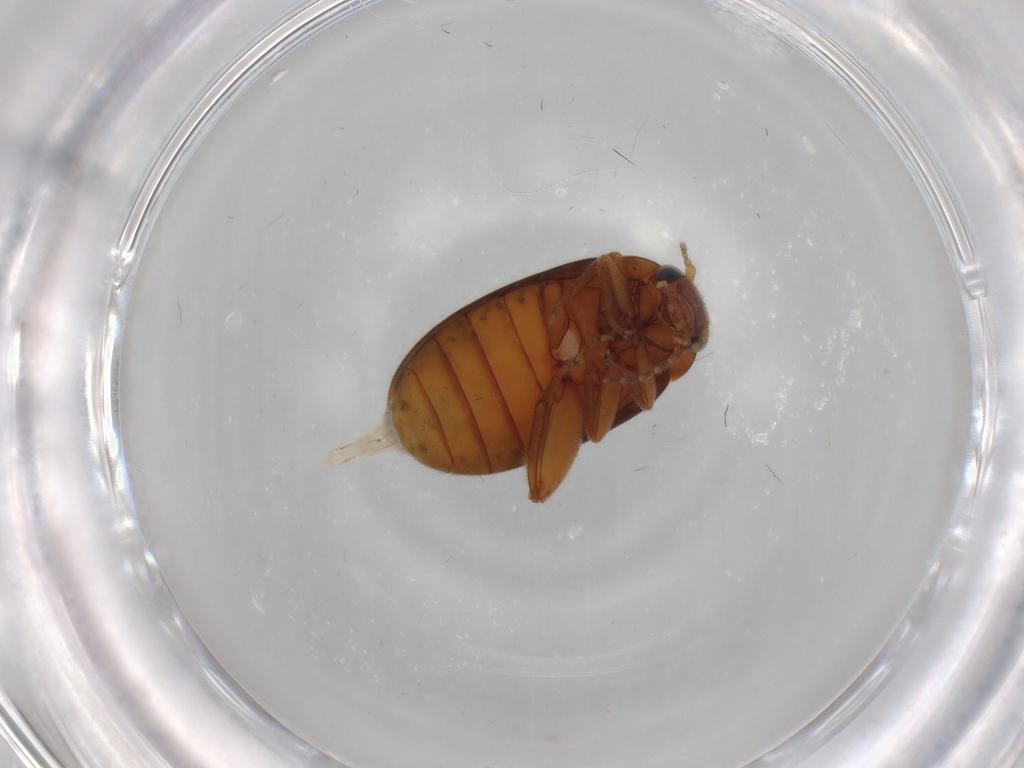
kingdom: Animalia
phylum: Arthropoda
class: Insecta
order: Coleoptera
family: Scirtidae
